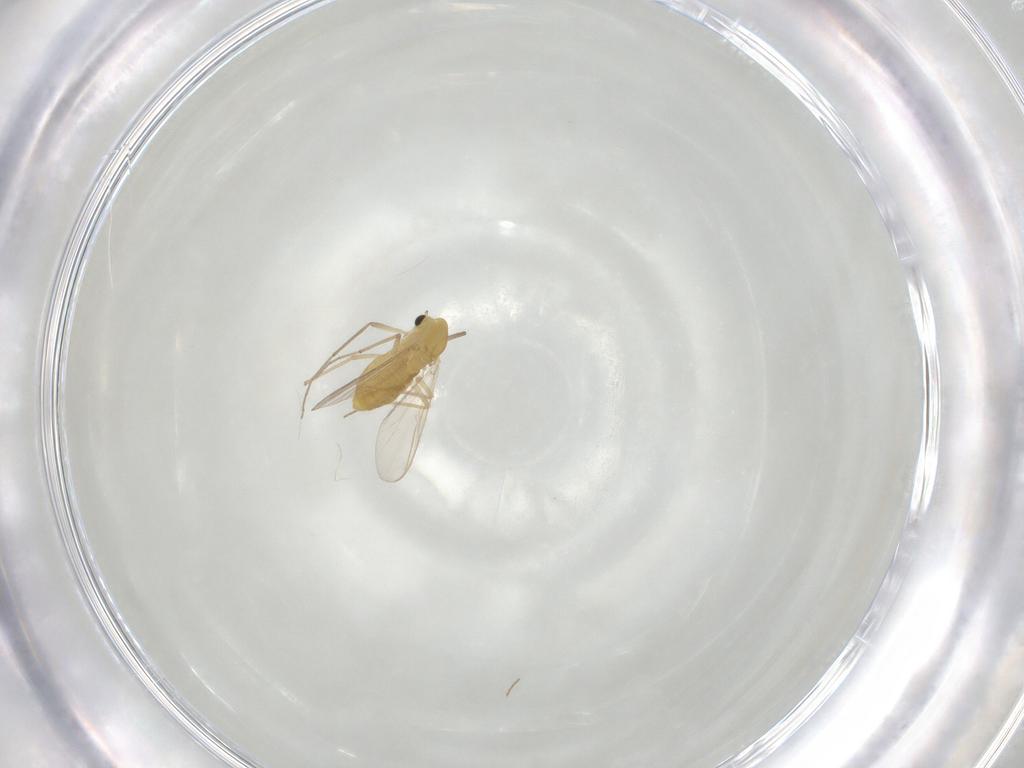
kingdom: Animalia
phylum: Arthropoda
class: Insecta
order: Diptera
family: Chironomidae
